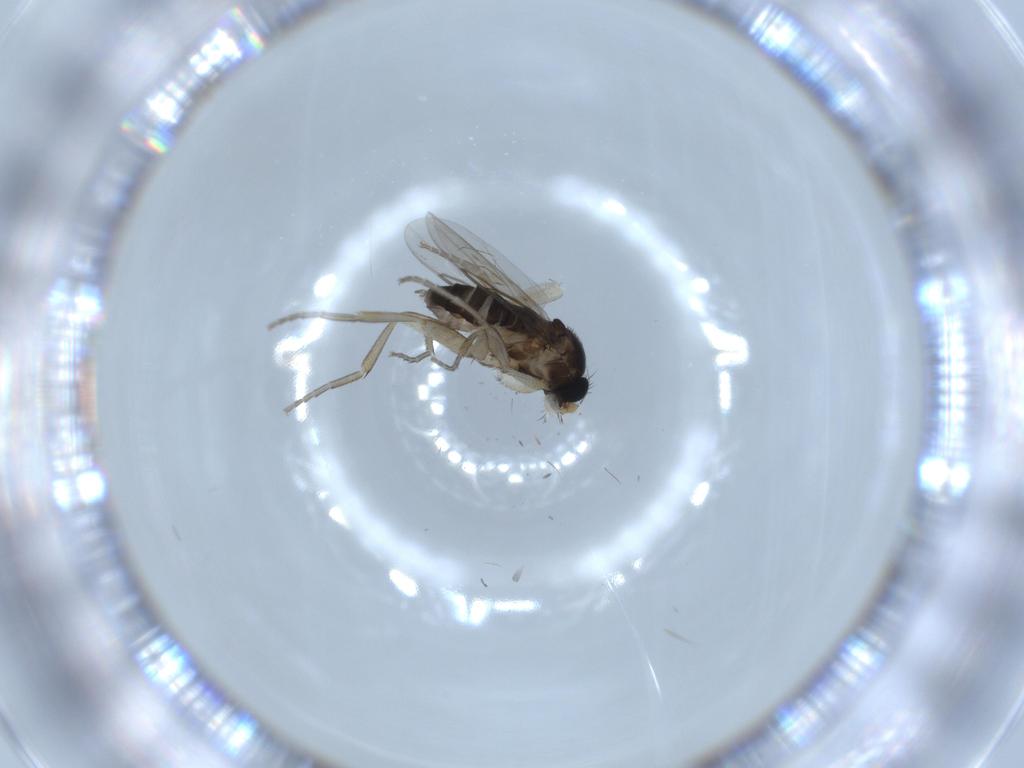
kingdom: Animalia
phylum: Arthropoda
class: Insecta
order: Diptera
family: Phoridae
